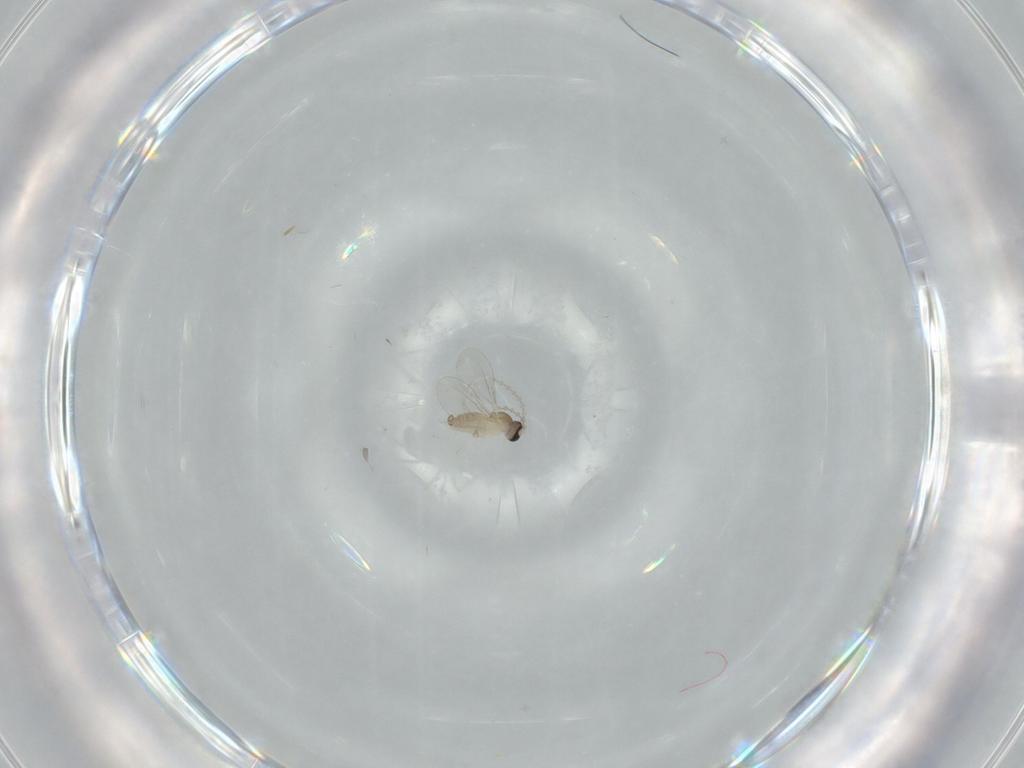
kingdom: Animalia
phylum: Arthropoda
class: Insecta
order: Diptera
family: Cecidomyiidae
